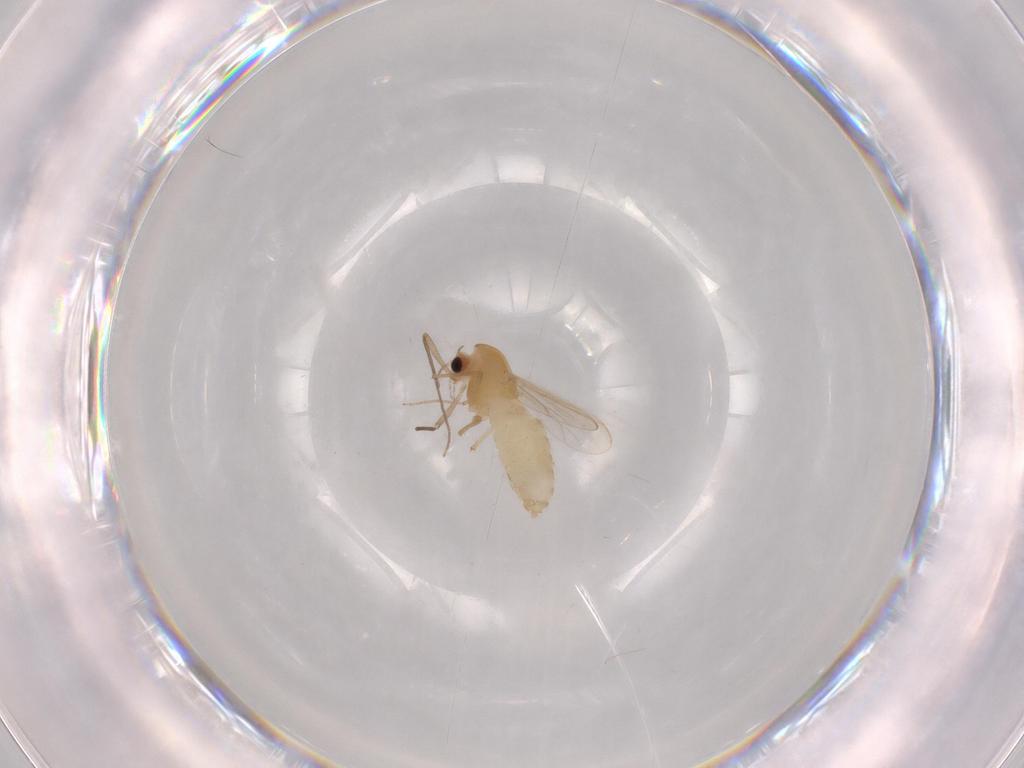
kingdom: Animalia
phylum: Arthropoda
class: Insecta
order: Diptera
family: Chironomidae
